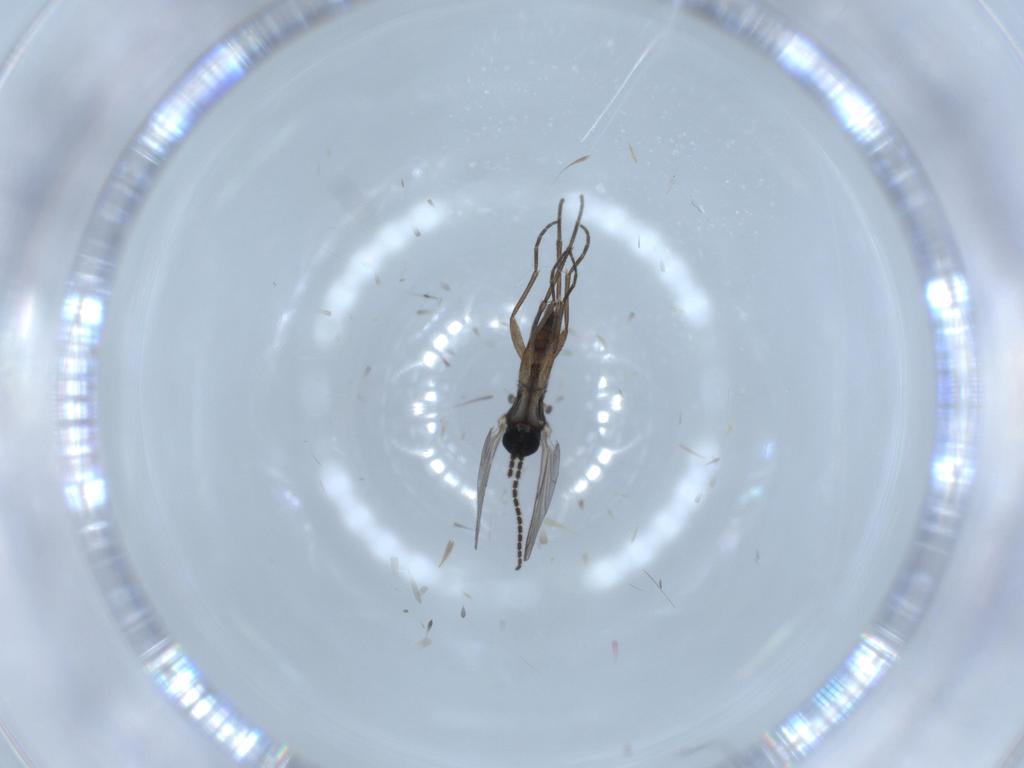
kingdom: Animalia
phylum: Arthropoda
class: Insecta
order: Diptera
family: Sciaridae
